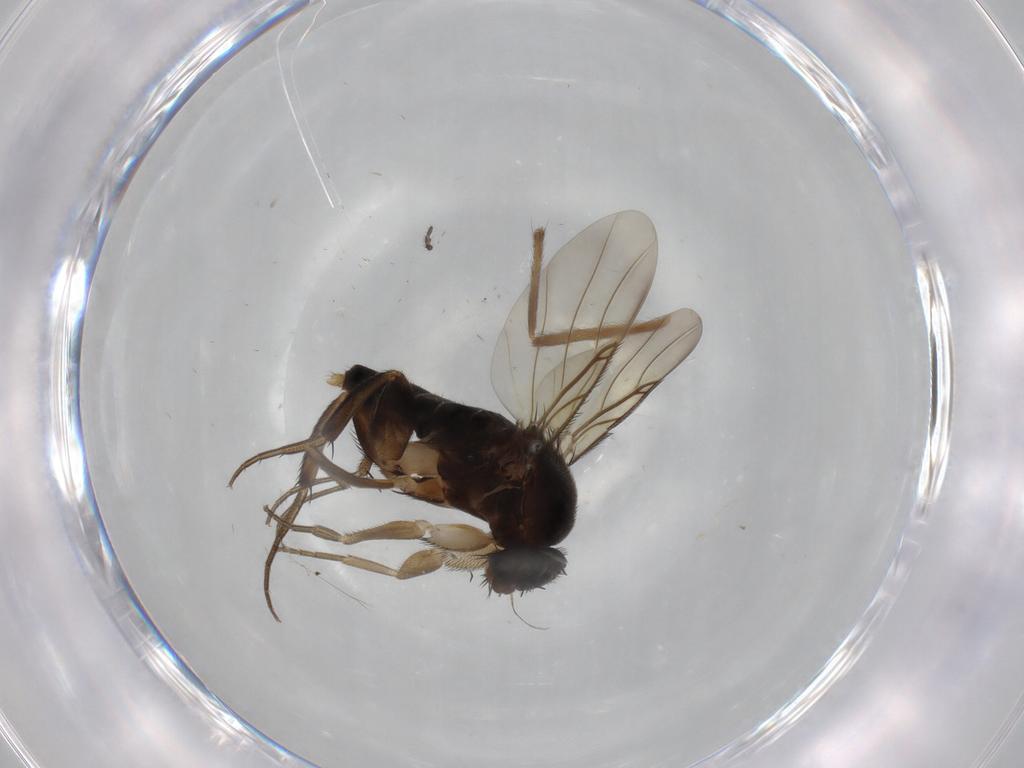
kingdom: Animalia
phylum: Arthropoda
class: Insecta
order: Diptera
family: Phoridae
